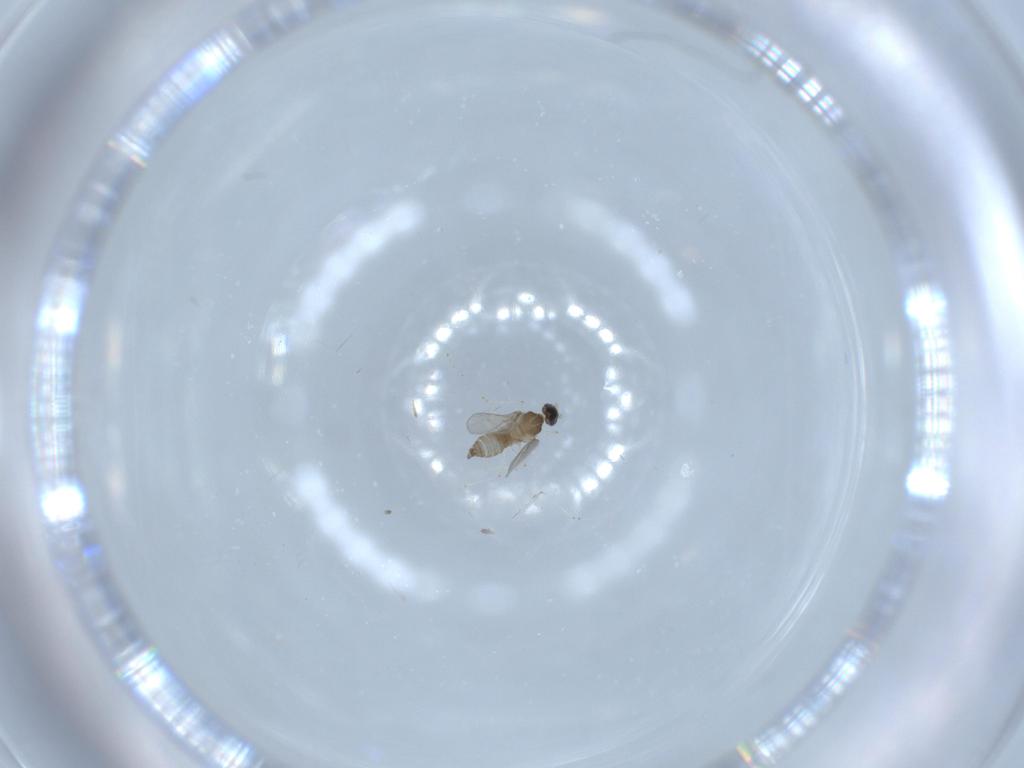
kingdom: Animalia
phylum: Arthropoda
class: Insecta
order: Diptera
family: Cecidomyiidae
